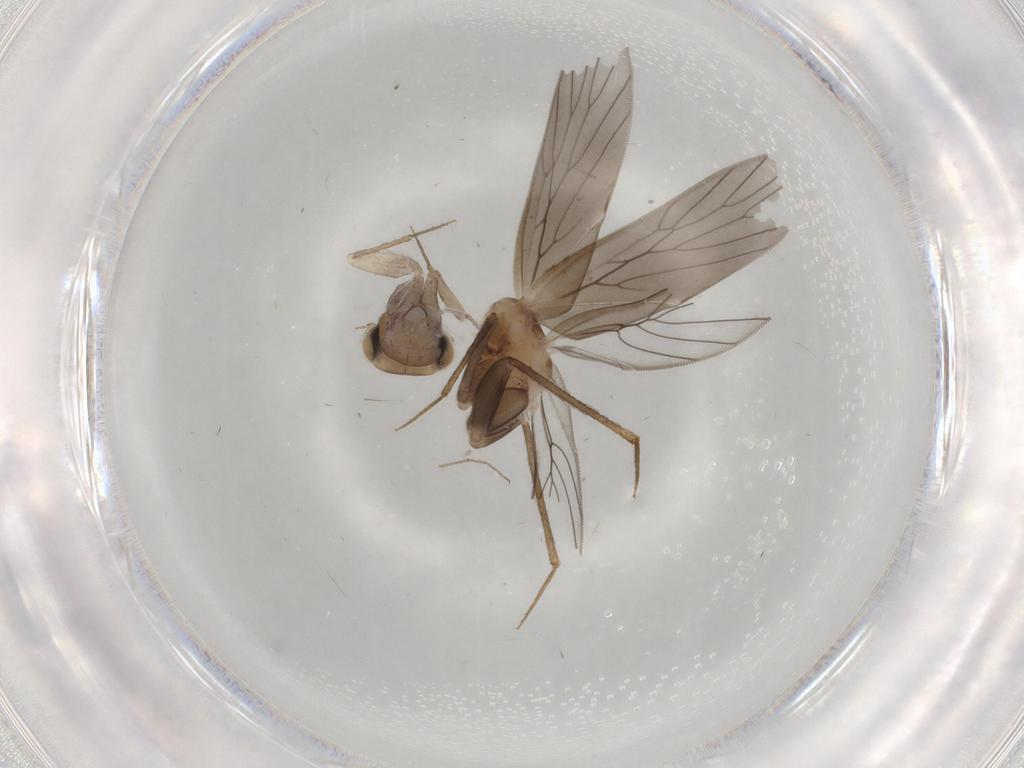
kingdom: Animalia
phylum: Arthropoda
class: Insecta
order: Psocodea
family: Lepidopsocidae
